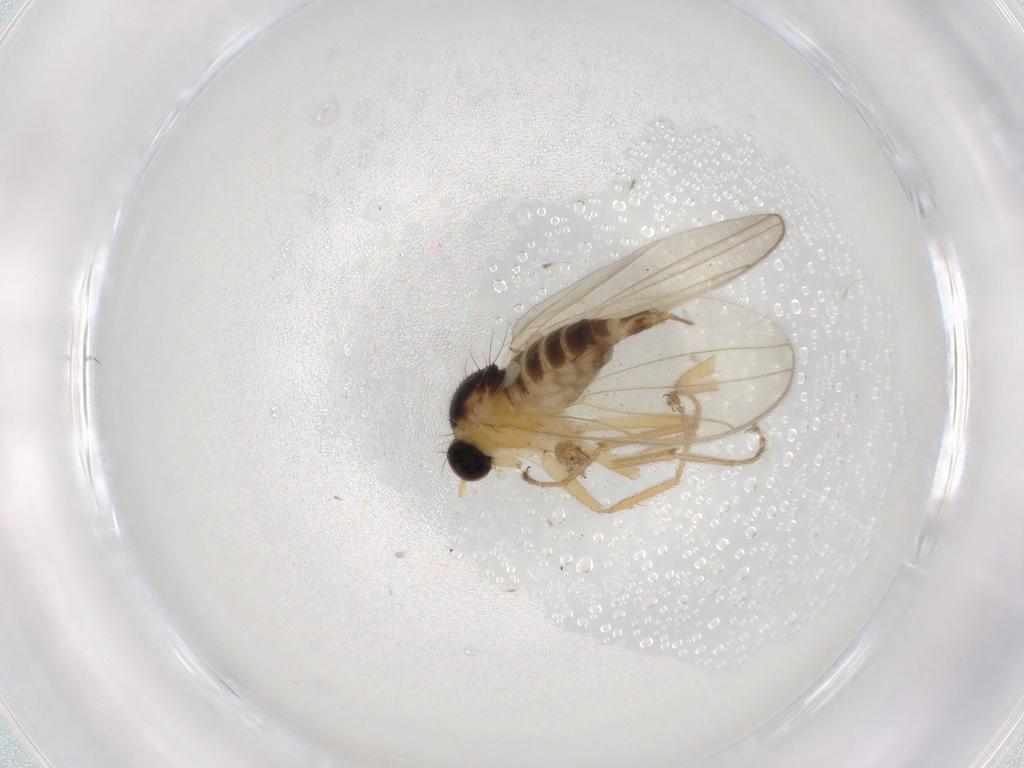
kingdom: Animalia
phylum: Arthropoda
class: Insecta
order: Diptera
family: Hybotidae
